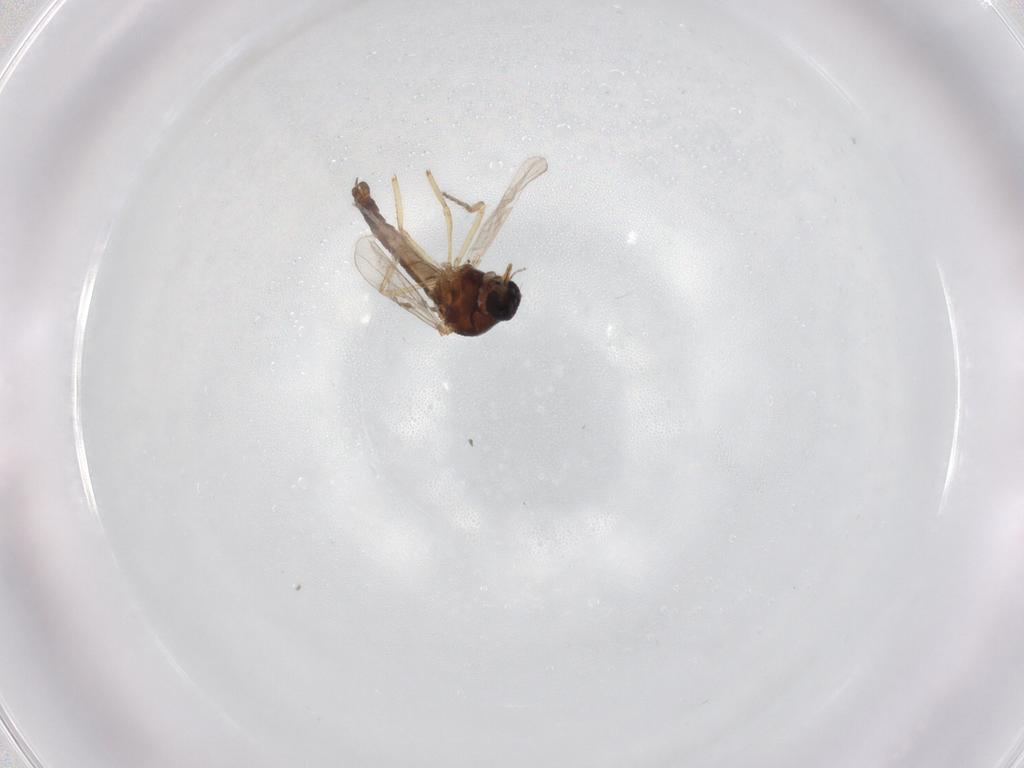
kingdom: Animalia
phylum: Arthropoda
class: Insecta
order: Diptera
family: Ceratopogonidae
